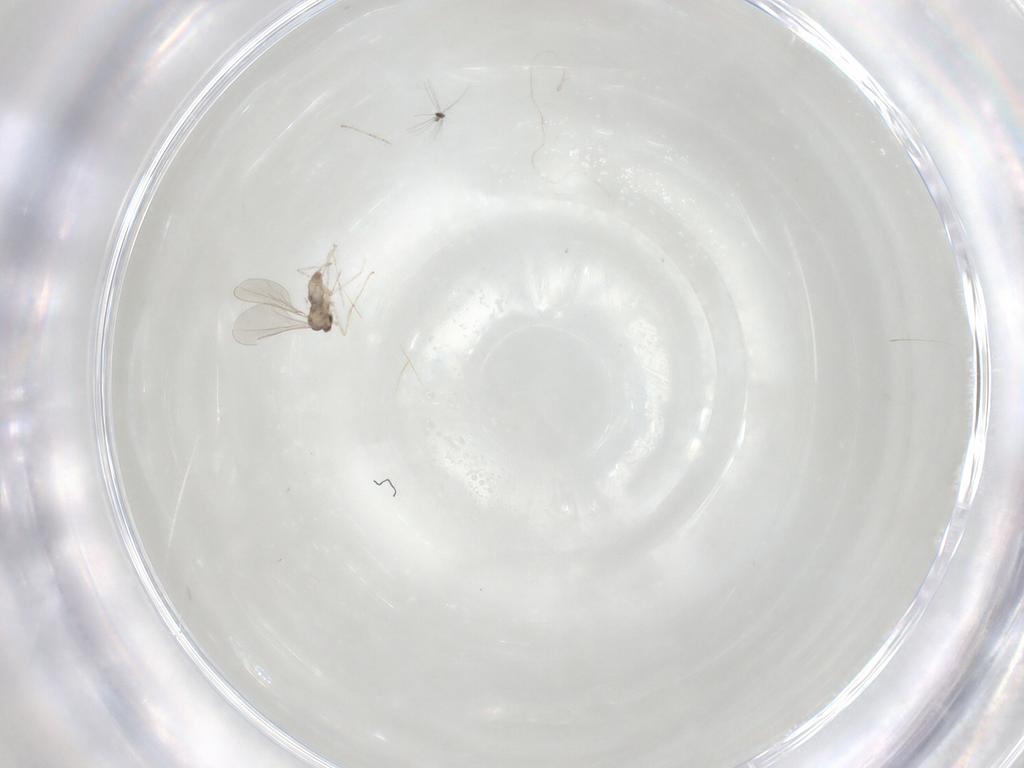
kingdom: Animalia
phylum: Arthropoda
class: Insecta
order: Diptera
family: Cecidomyiidae
